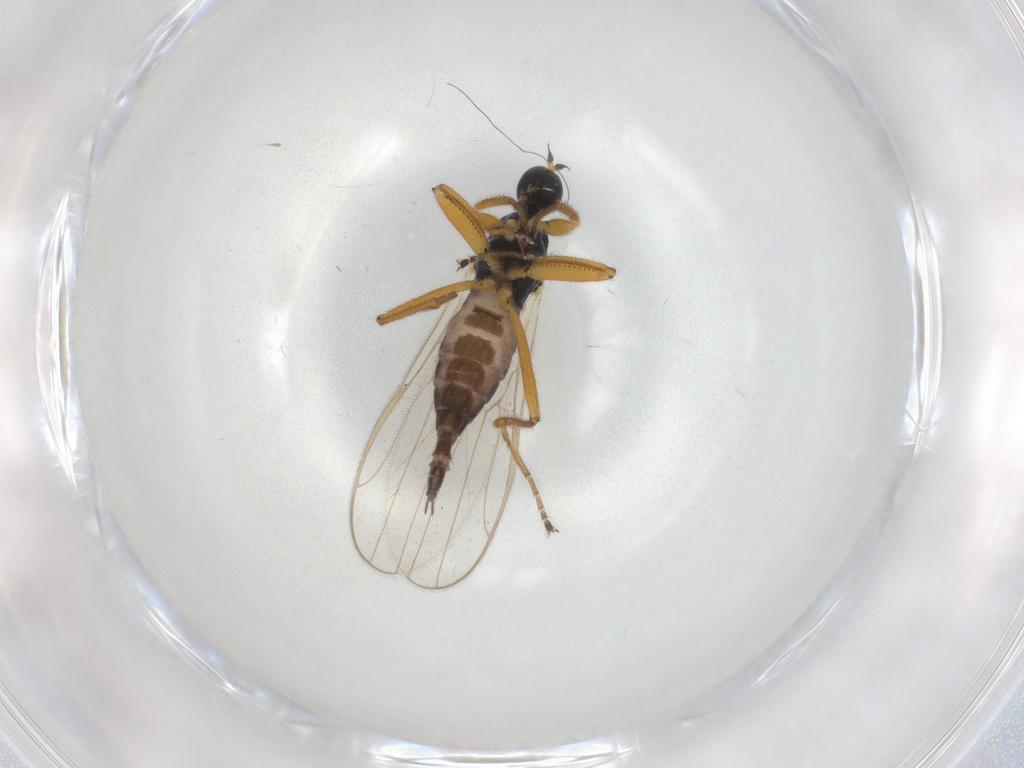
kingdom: Animalia
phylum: Arthropoda
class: Insecta
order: Diptera
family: Hybotidae
